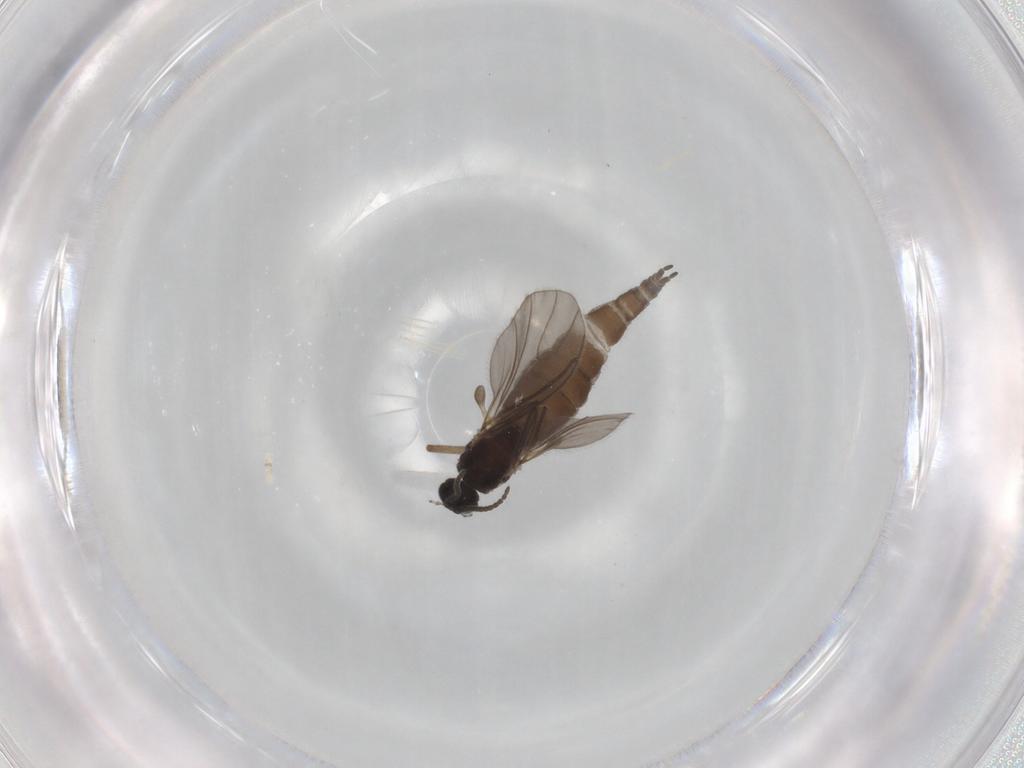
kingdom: Animalia
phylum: Arthropoda
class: Insecta
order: Diptera
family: Sciaridae
